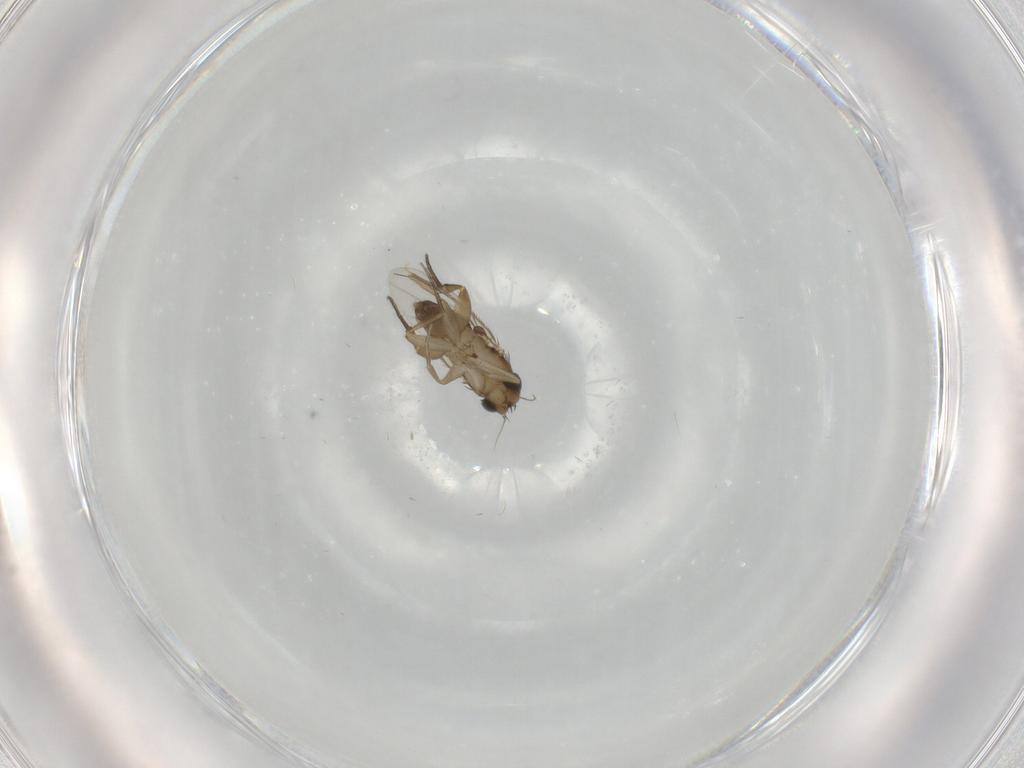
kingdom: Animalia
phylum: Arthropoda
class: Insecta
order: Diptera
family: Phoridae
